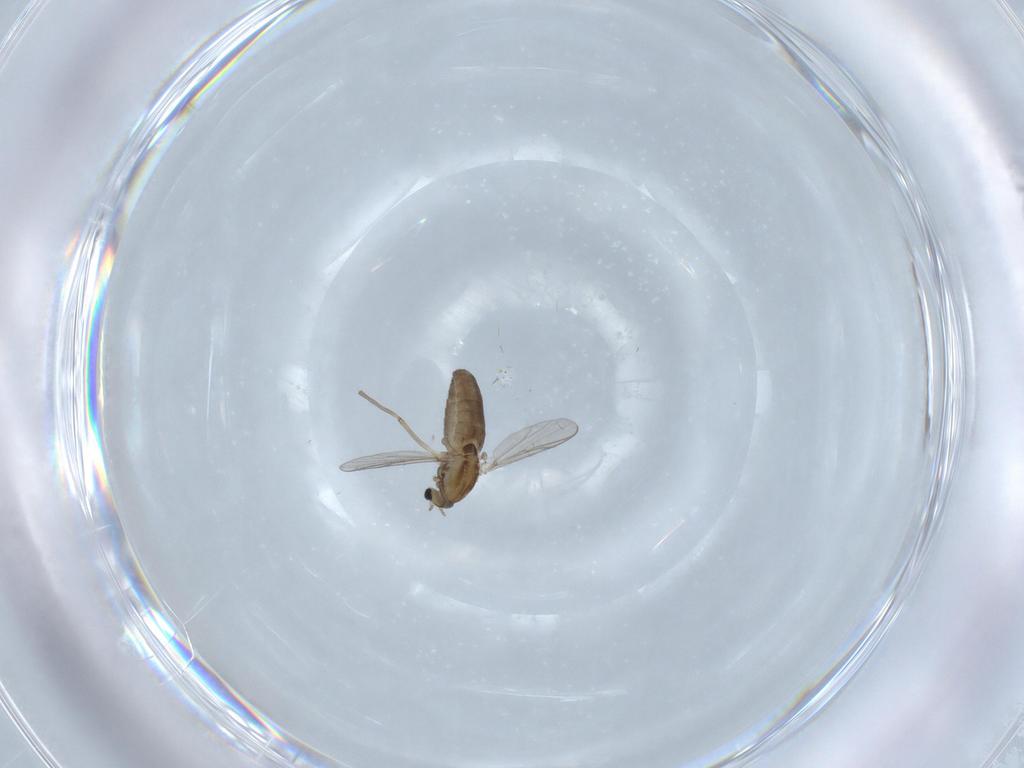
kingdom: Animalia
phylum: Arthropoda
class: Insecta
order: Diptera
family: Chironomidae
